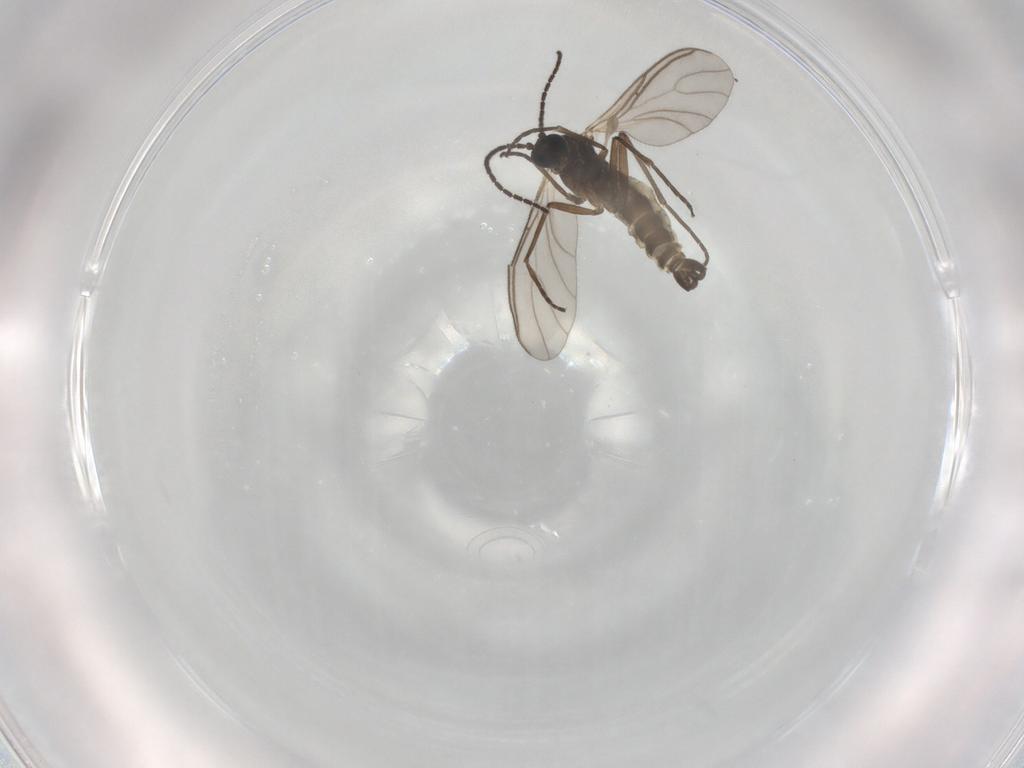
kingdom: Animalia
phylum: Arthropoda
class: Insecta
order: Diptera
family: Sciaridae
